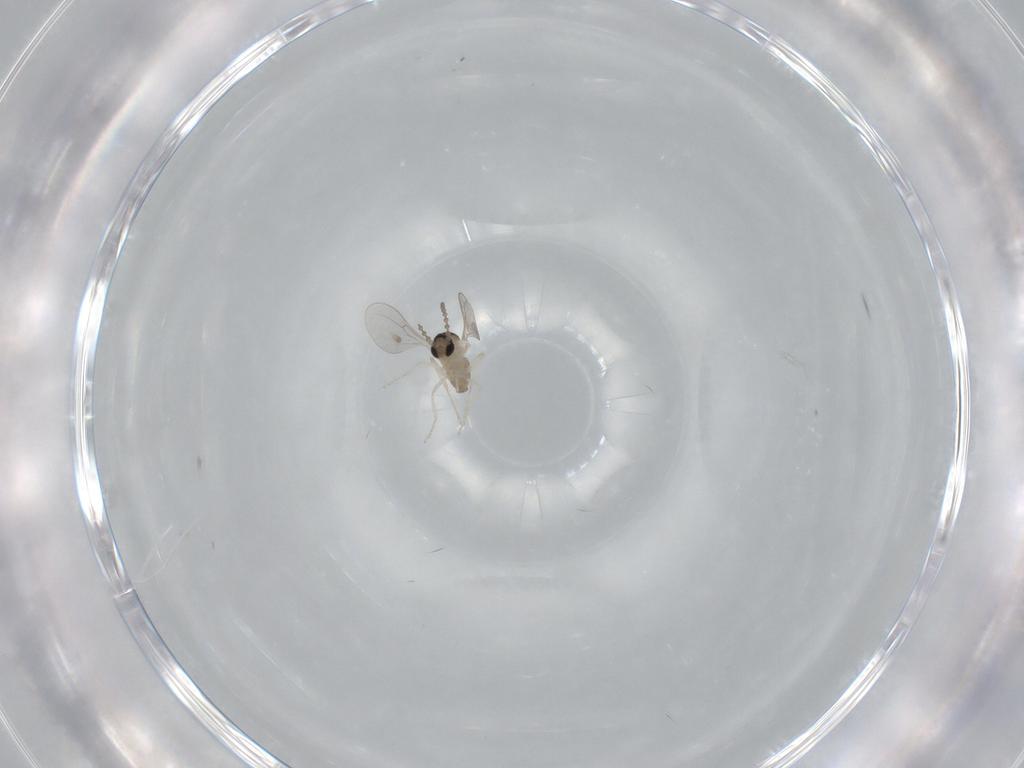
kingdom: Animalia
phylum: Arthropoda
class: Insecta
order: Diptera
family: Cecidomyiidae
